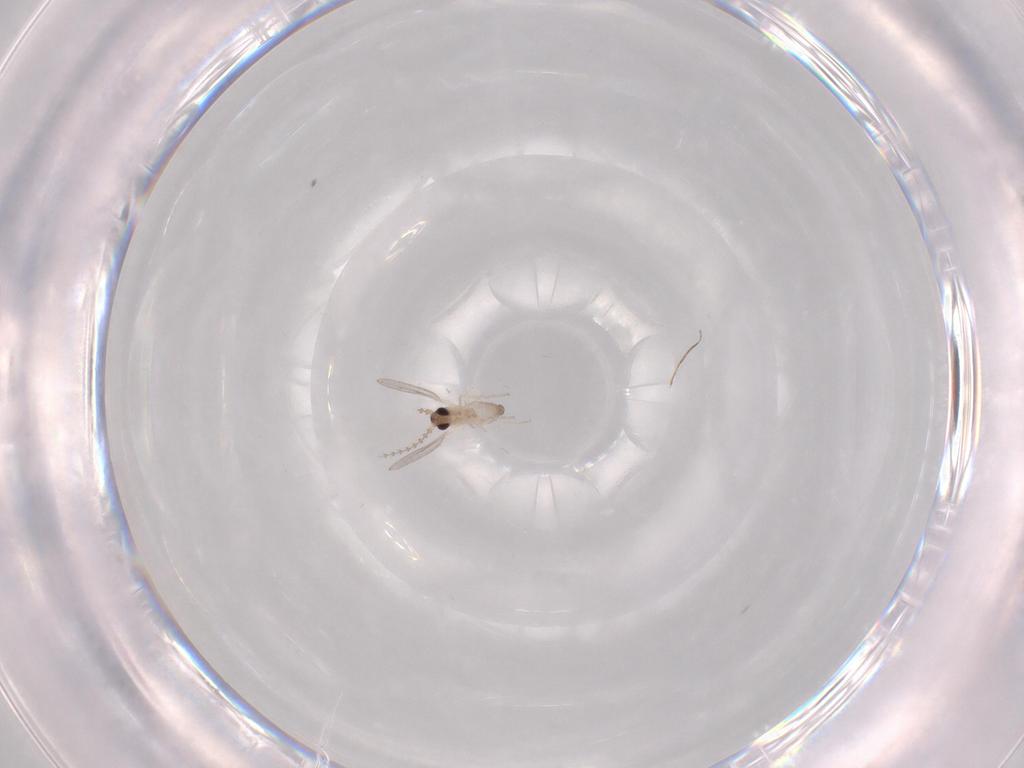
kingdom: Animalia
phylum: Arthropoda
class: Insecta
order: Diptera
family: Cecidomyiidae
